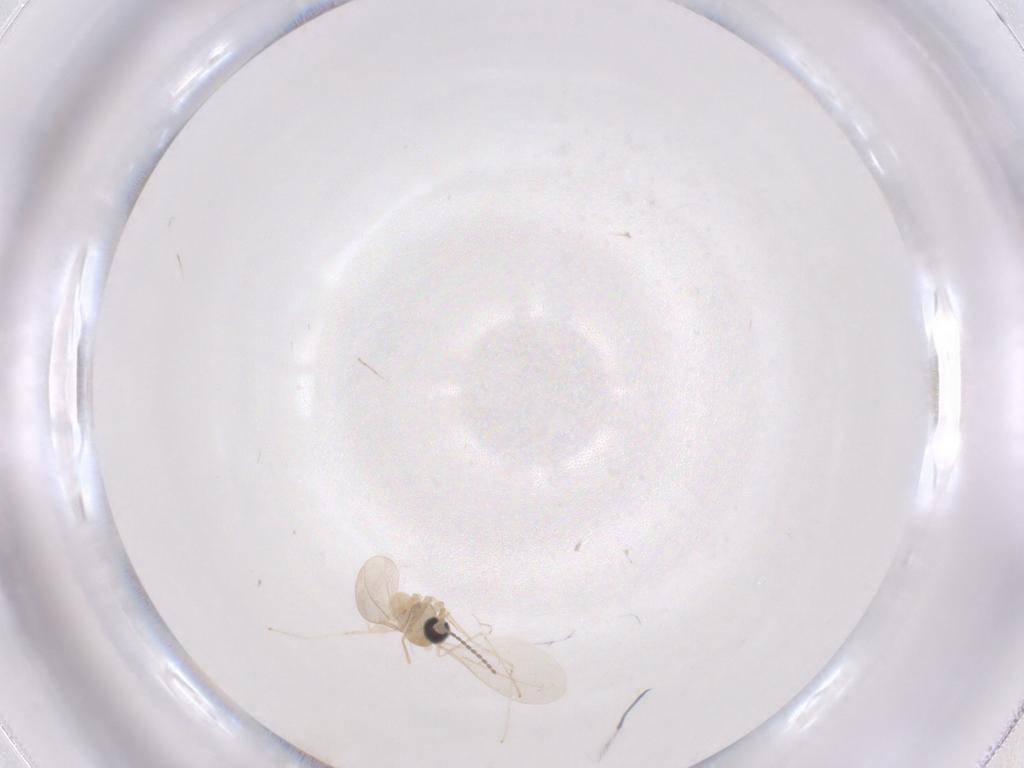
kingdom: Animalia
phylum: Arthropoda
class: Insecta
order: Diptera
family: Cecidomyiidae
